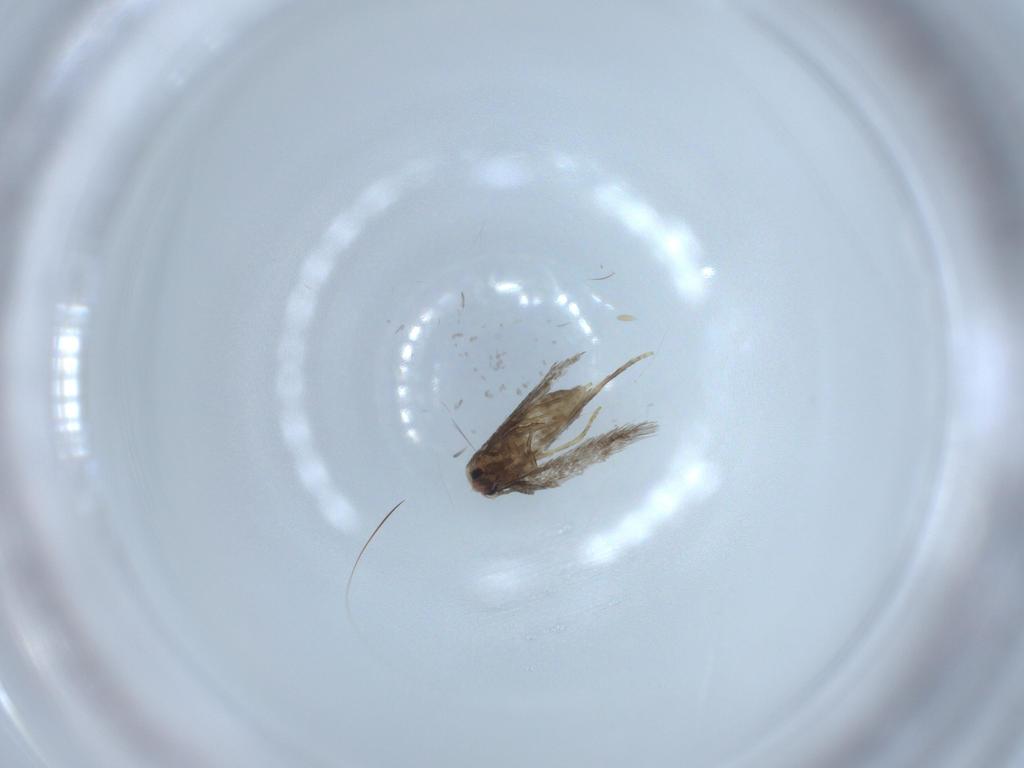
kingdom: Animalia
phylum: Arthropoda
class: Insecta
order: Lepidoptera
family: Nepticulidae
